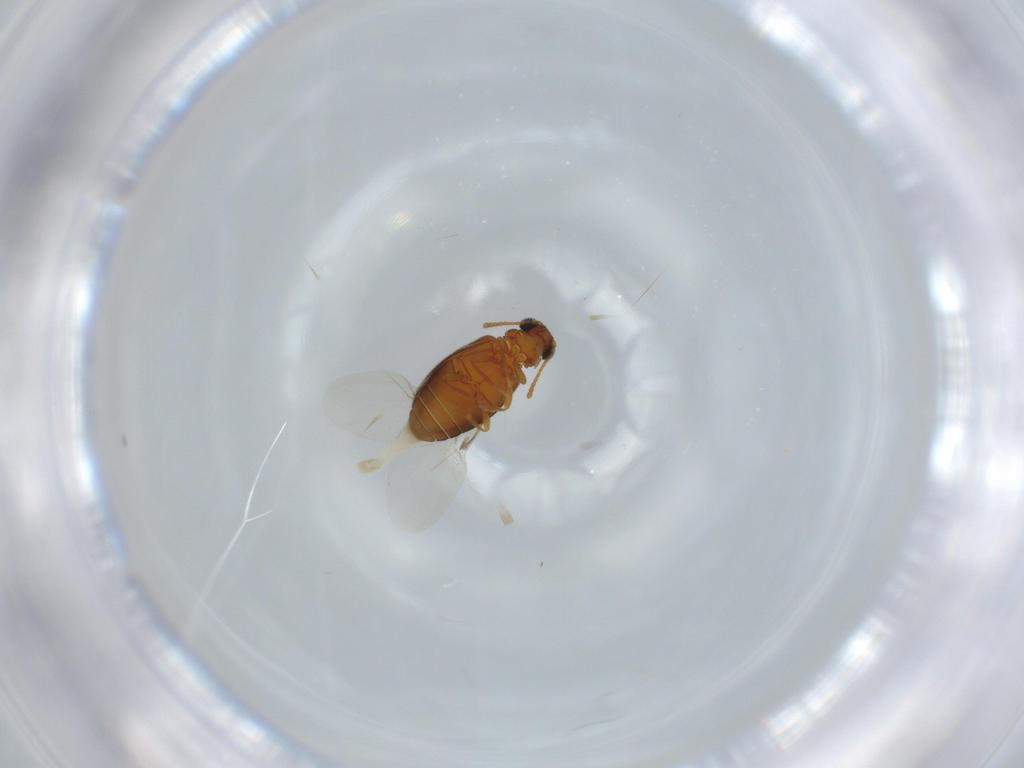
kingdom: Animalia
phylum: Arthropoda
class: Insecta
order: Coleoptera
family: Aderidae
